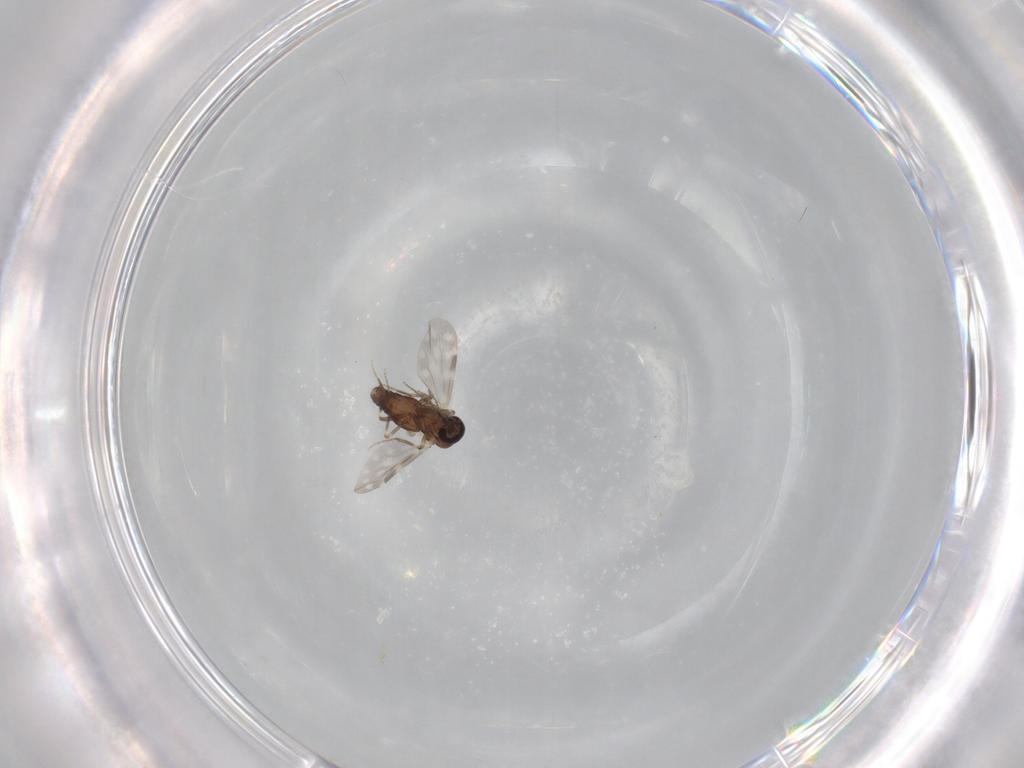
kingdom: Animalia
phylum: Arthropoda
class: Insecta
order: Diptera
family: Ceratopogonidae
